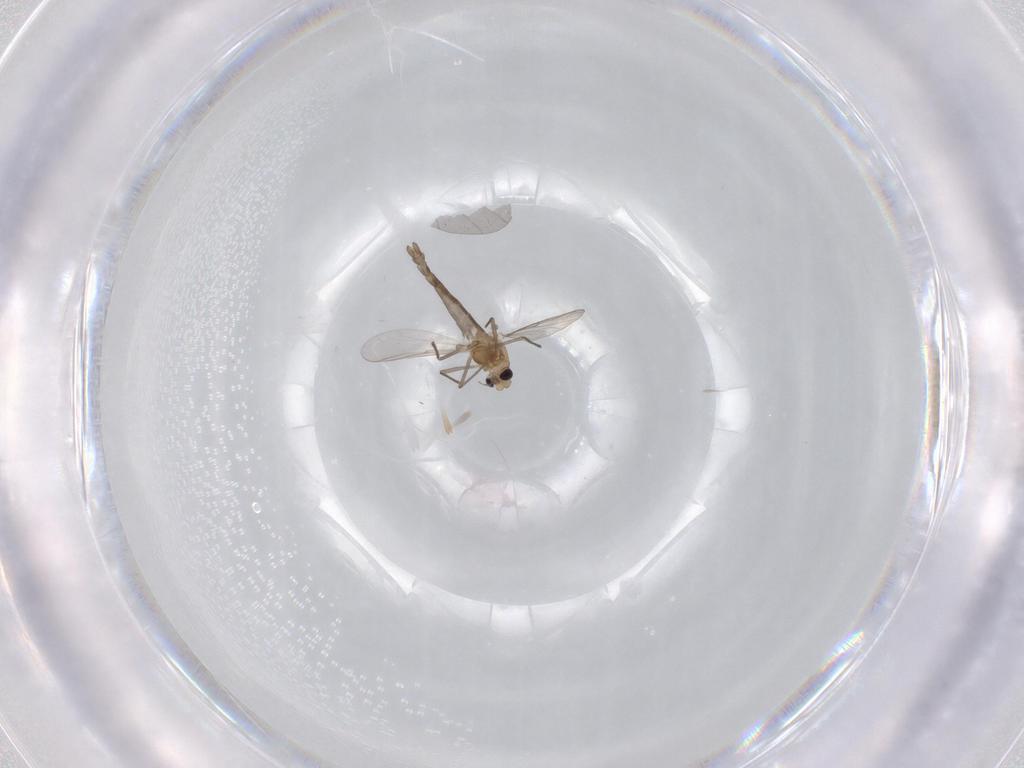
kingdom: Animalia
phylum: Arthropoda
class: Insecta
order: Diptera
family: Chironomidae
